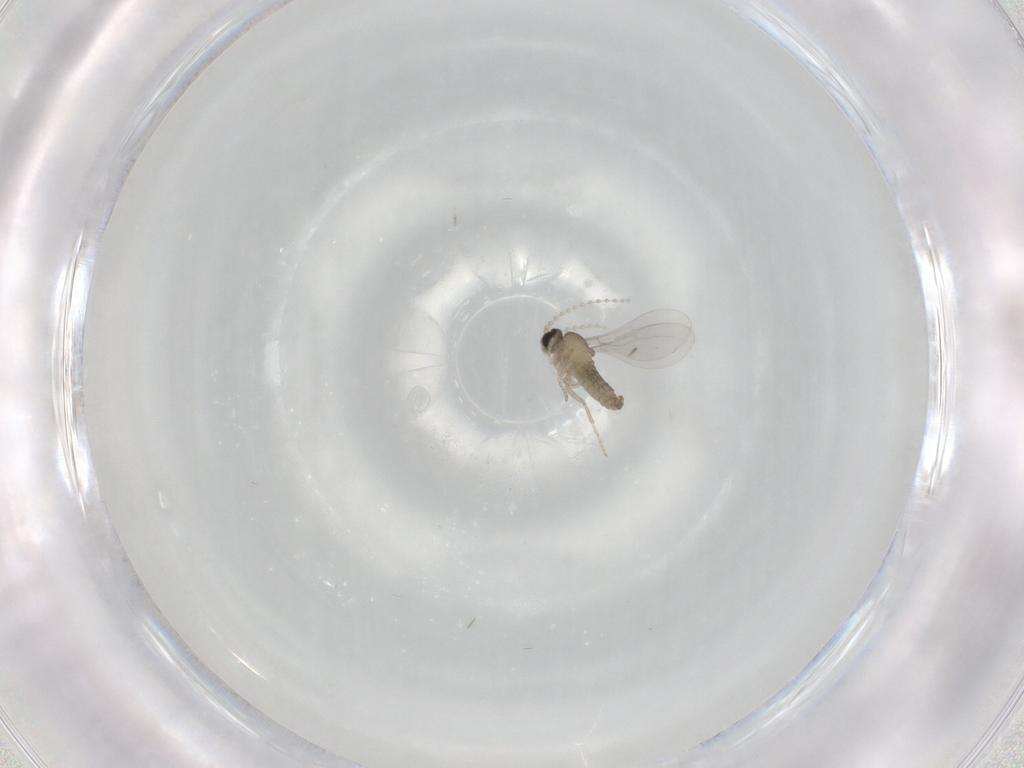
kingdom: Animalia
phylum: Arthropoda
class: Insecta
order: Diptera
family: Cecidomyiidae
